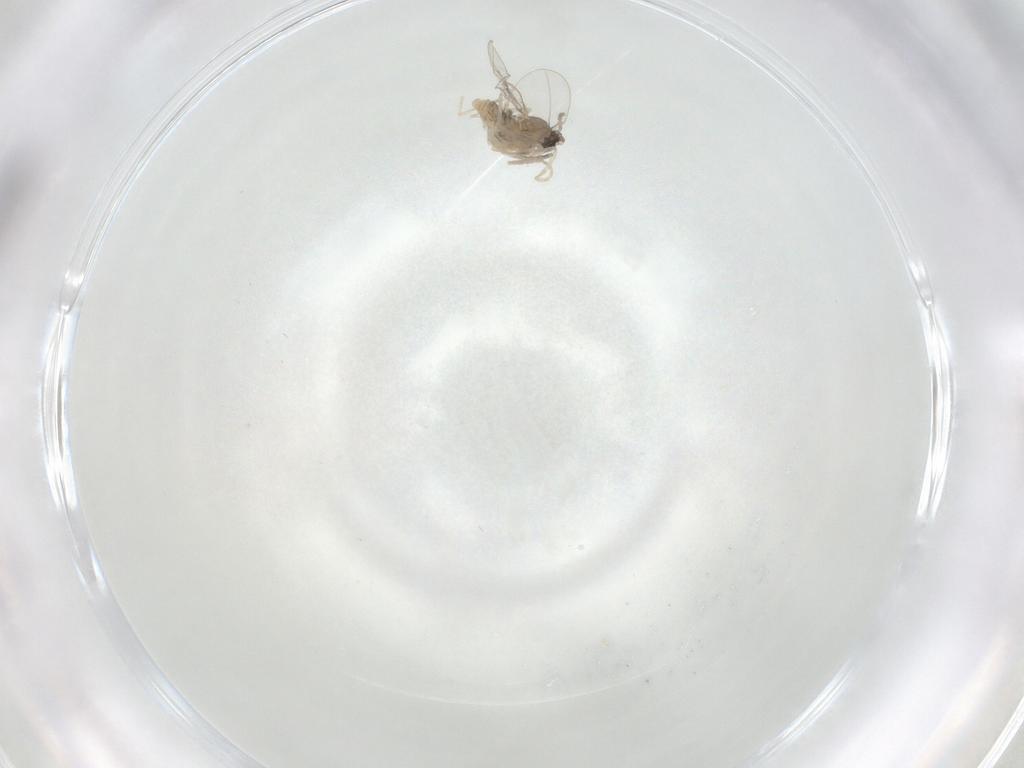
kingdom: Animalia
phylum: Arthropoda
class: Insecta
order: Diptera
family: Cecidomyiidae
